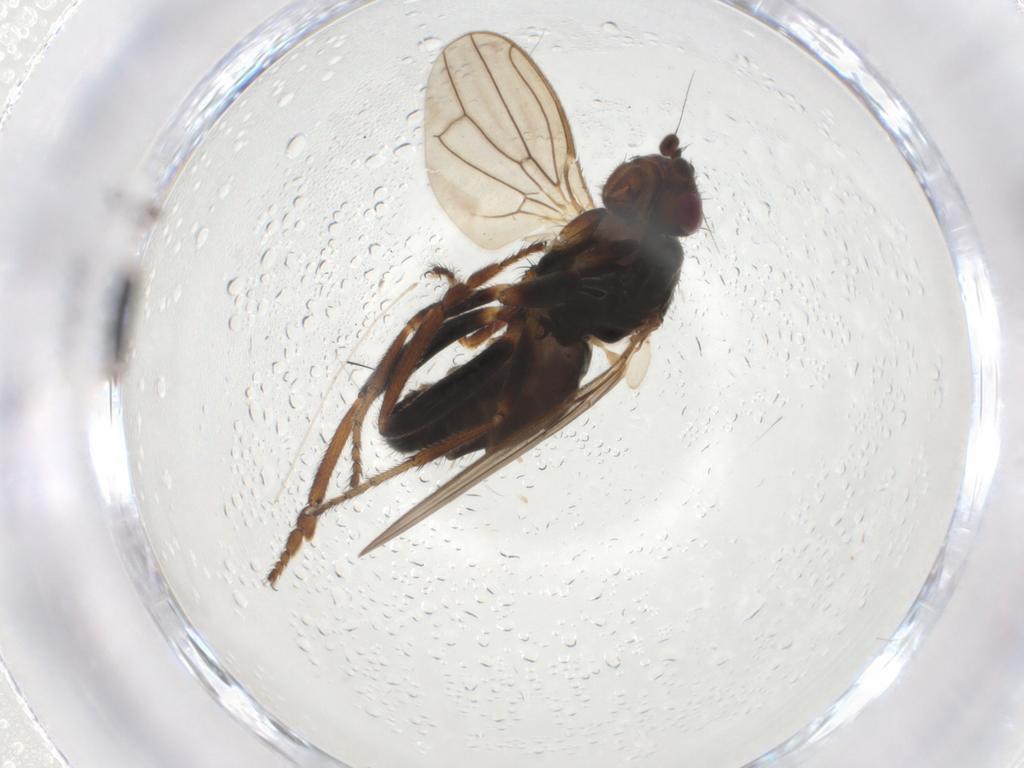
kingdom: Animalia
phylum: Arthropoda
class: Insecta
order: Diptera
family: Sphaeroceridae
